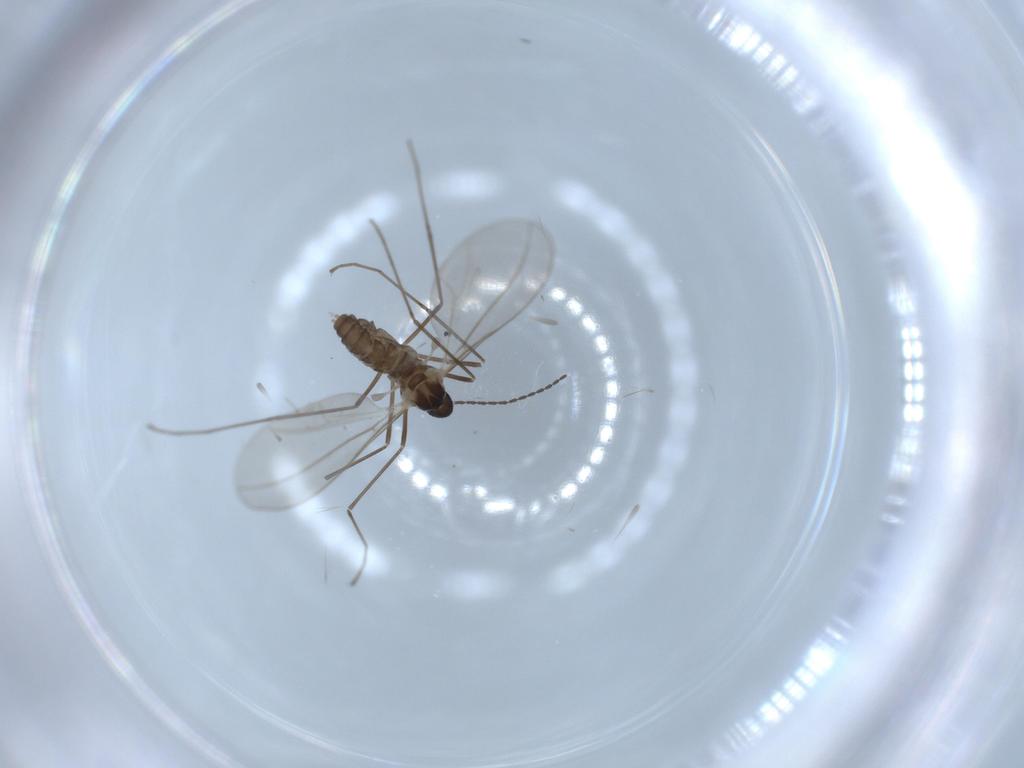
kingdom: Animalia
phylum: Arthropoda
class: Insecta
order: Diptera
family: Cecidomyiidae
